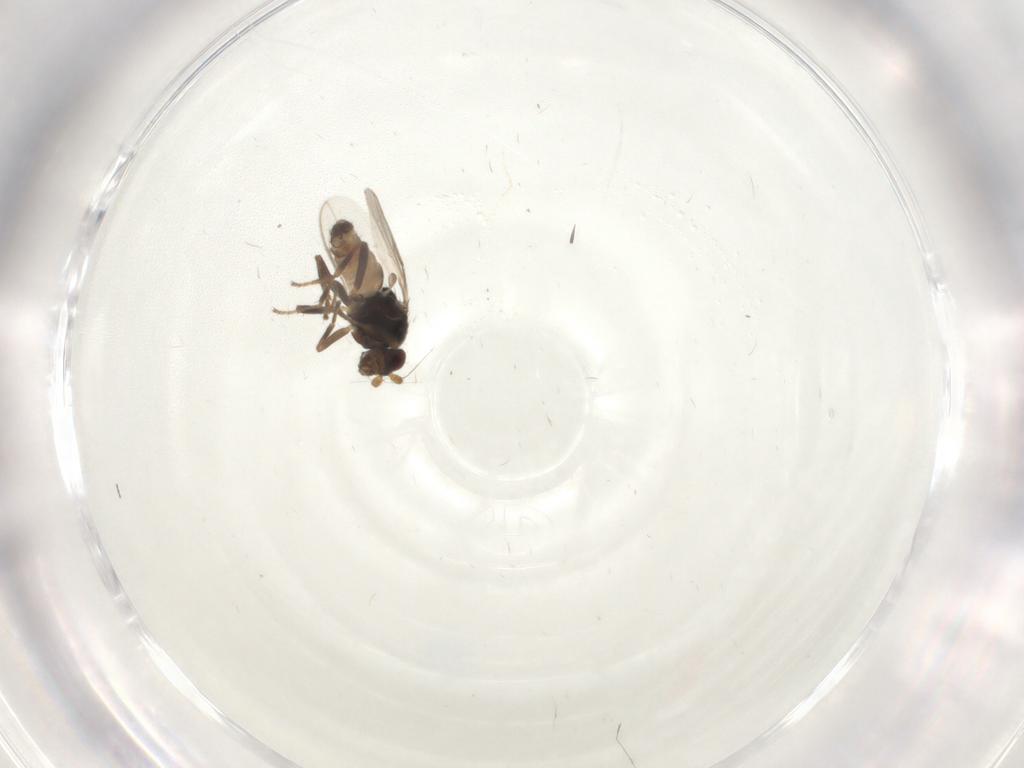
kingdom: Animalia
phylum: Arthropoda
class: Insecta
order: Diptera
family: Sphaeroceridae
